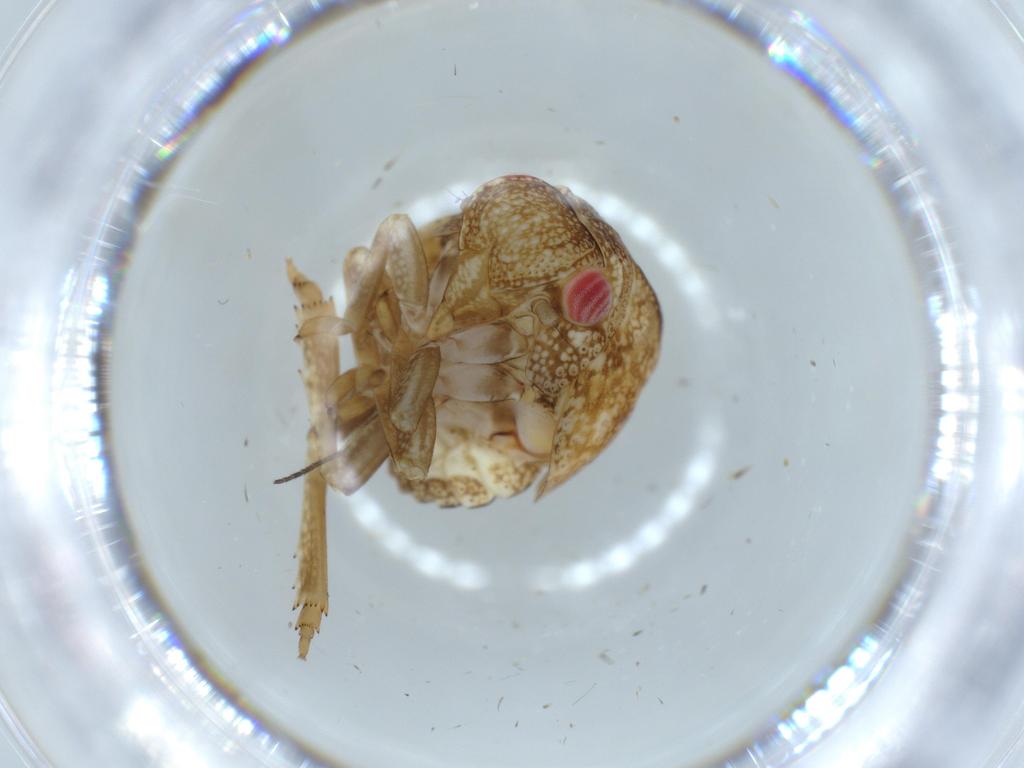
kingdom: Animalia
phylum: Arthropoda
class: Insecta
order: Hemiptera
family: Acanaloniidae
